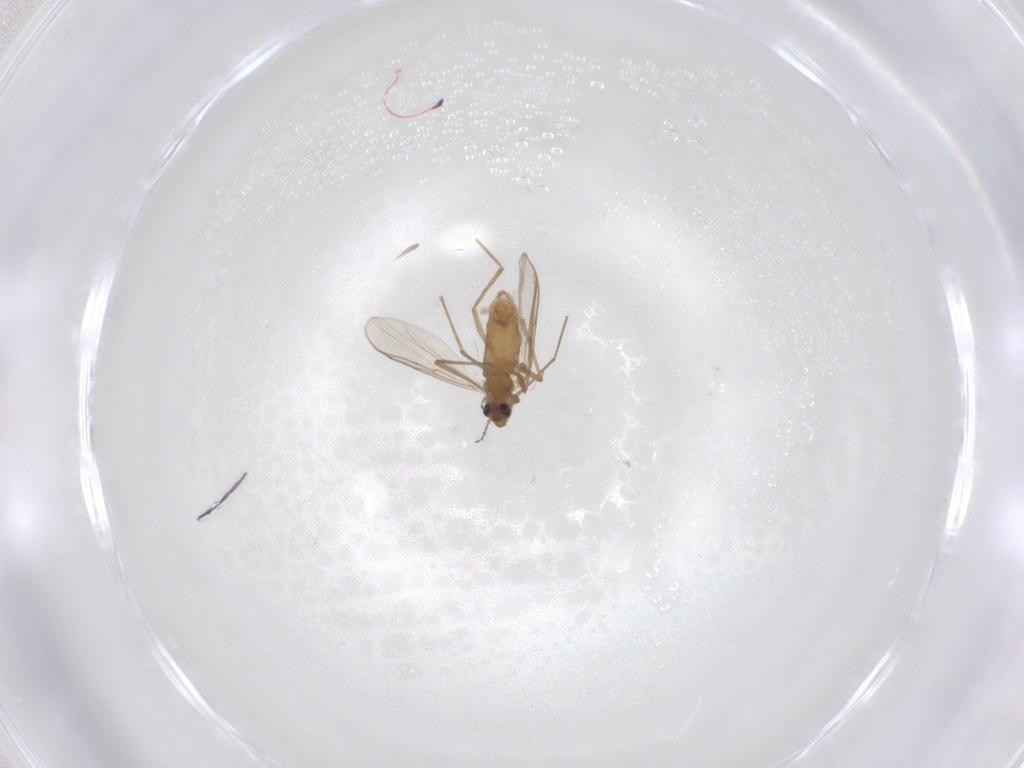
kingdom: Animalia
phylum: Arthropoda
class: Insecta
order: Diptera
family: Chironomidae
